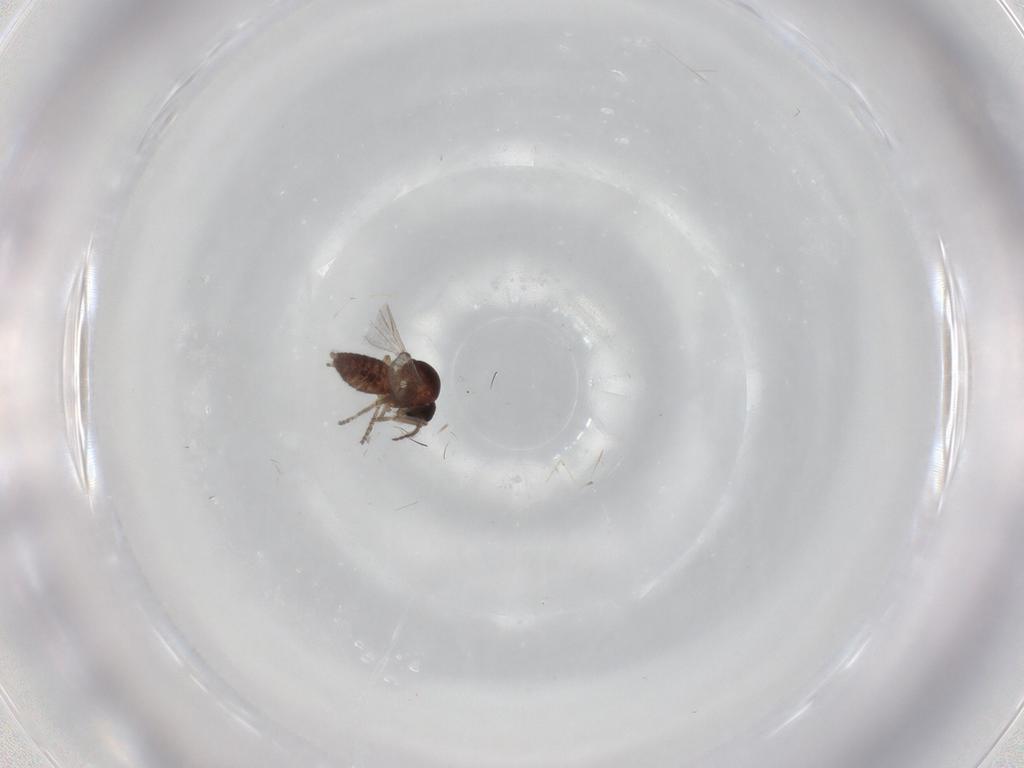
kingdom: Animalia
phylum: Arthropoda
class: Insecta
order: Diptera
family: Ceratopogonidae
